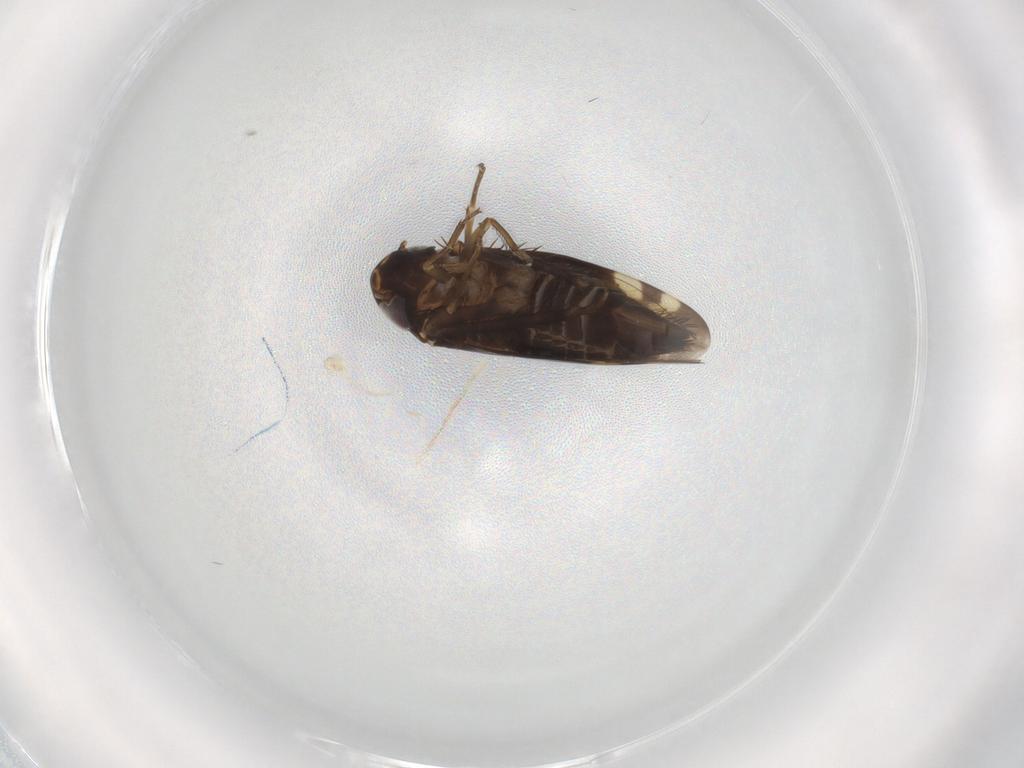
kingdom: Animalia
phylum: Arthropoda
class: Insecta
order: Hemiptera
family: Cicadellidae
